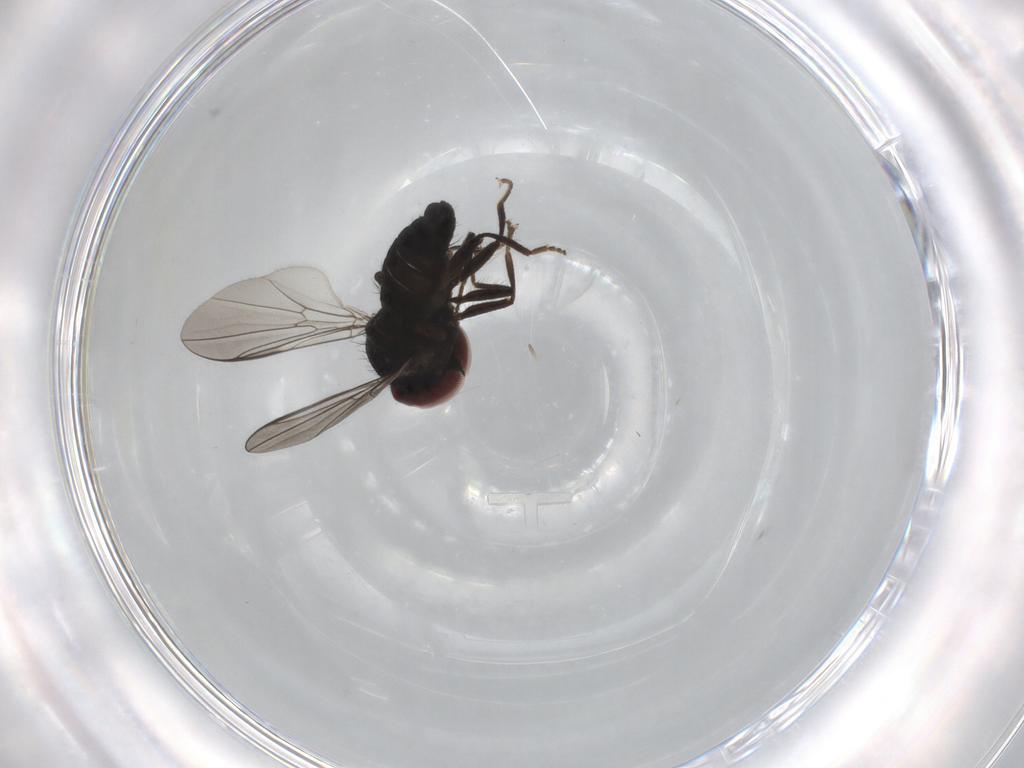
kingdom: Animalia
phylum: Arthropoda
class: Insecta
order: Diptera
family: Pipunculidae
